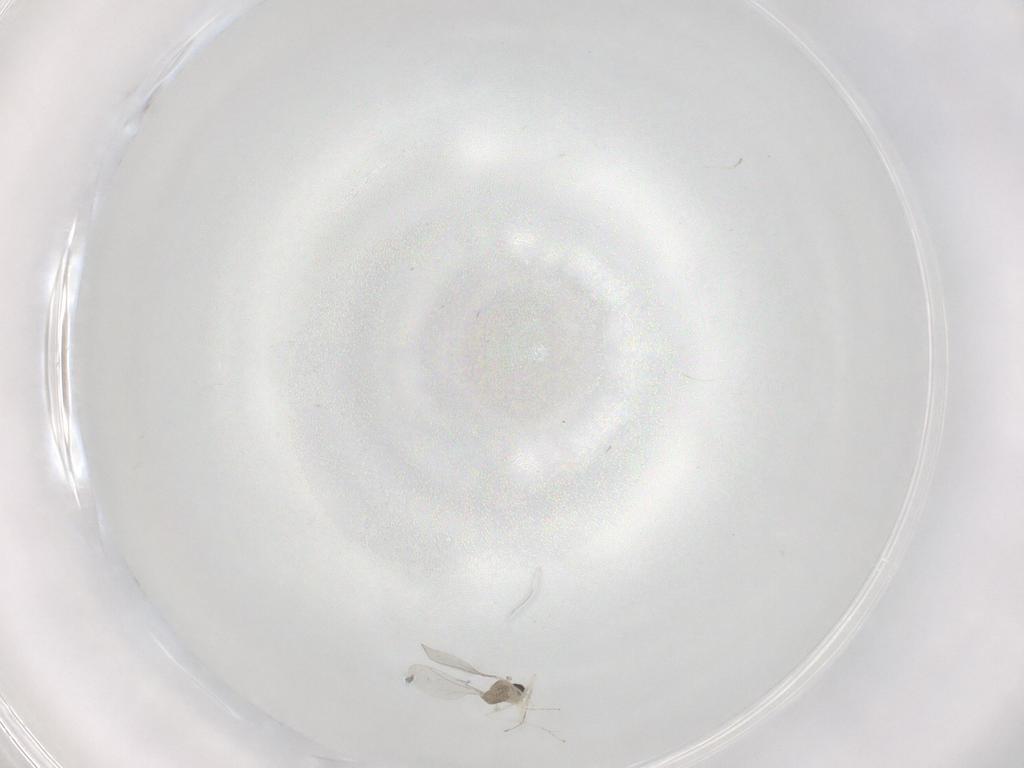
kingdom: Animalia
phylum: Arthropoda
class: Insecta
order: Diptera
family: Cecidomyiidae
